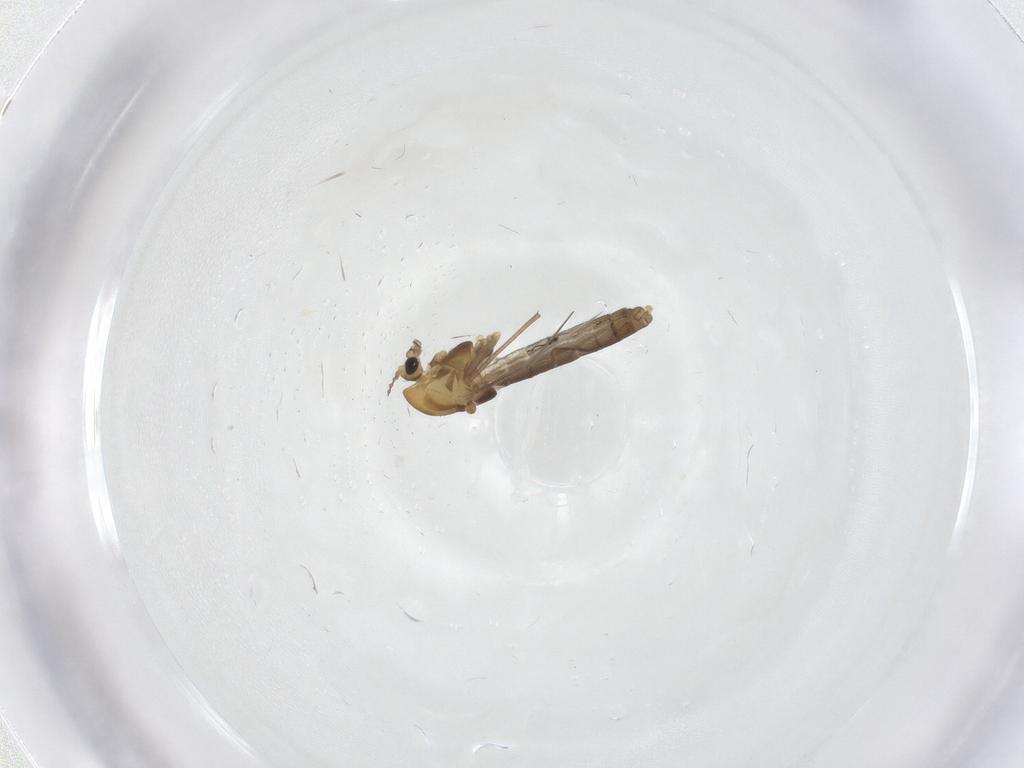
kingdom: Animalia
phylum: Arthropoda
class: Insecta
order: Diptera
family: Chironomidae
